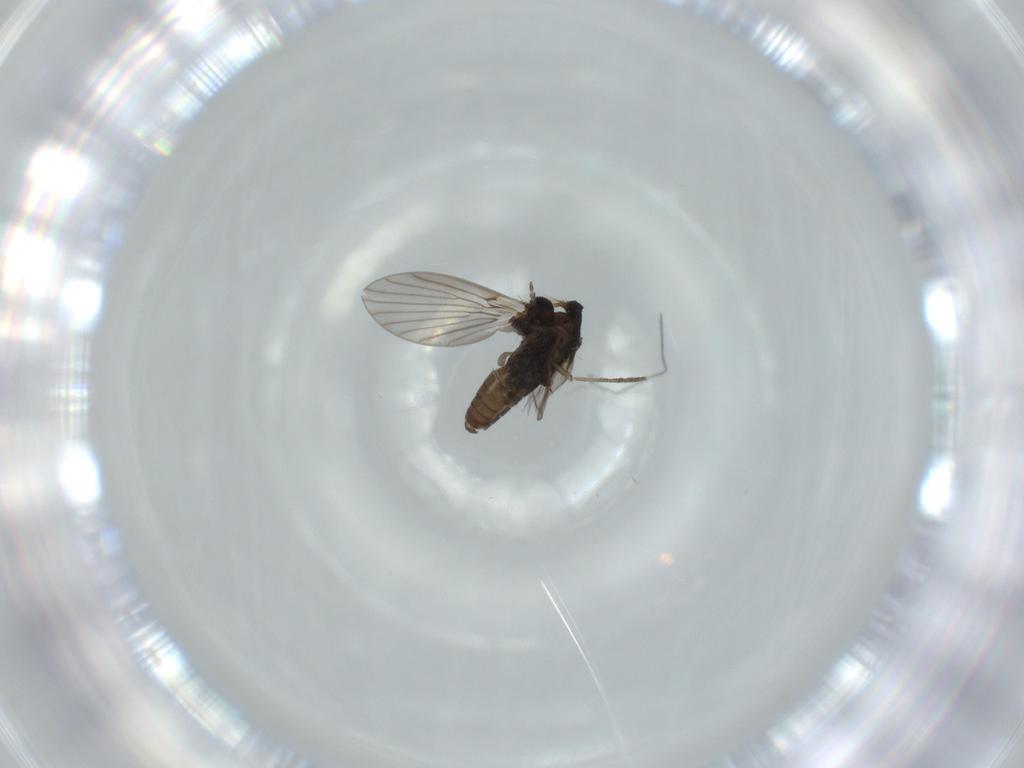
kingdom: Animalia
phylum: Arthropoda
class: Insecta
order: Diptera
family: Psychodidae
